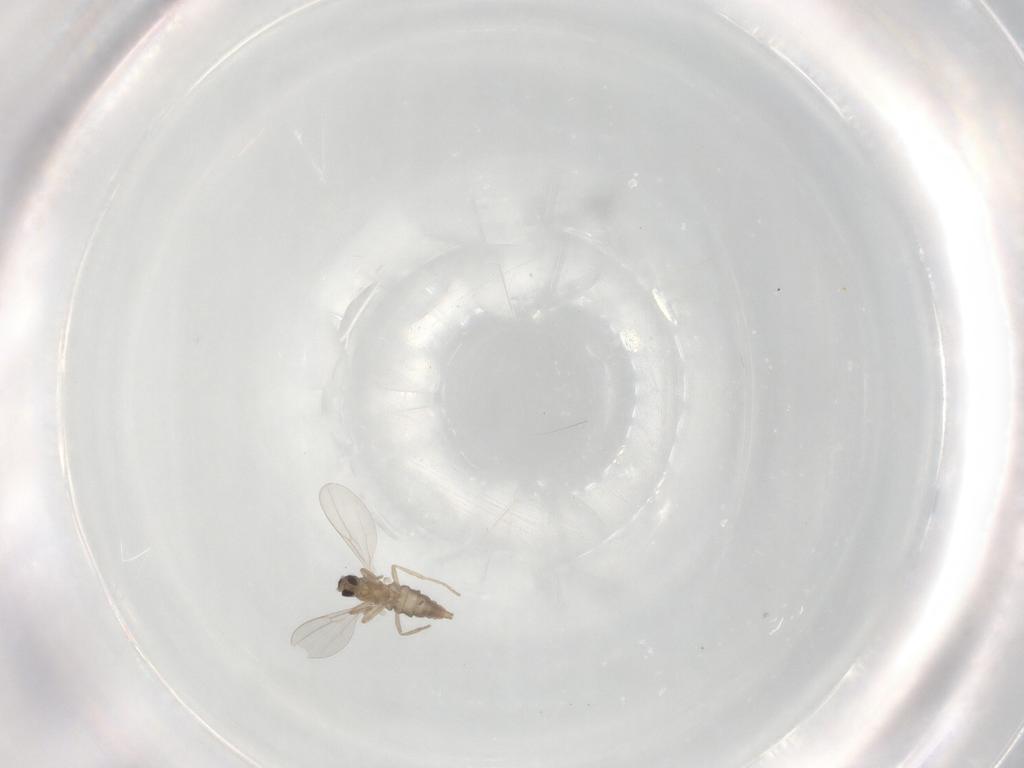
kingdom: Animalia
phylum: Arthropoda
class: Insecta
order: Diptera
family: Cecidomyiidae
